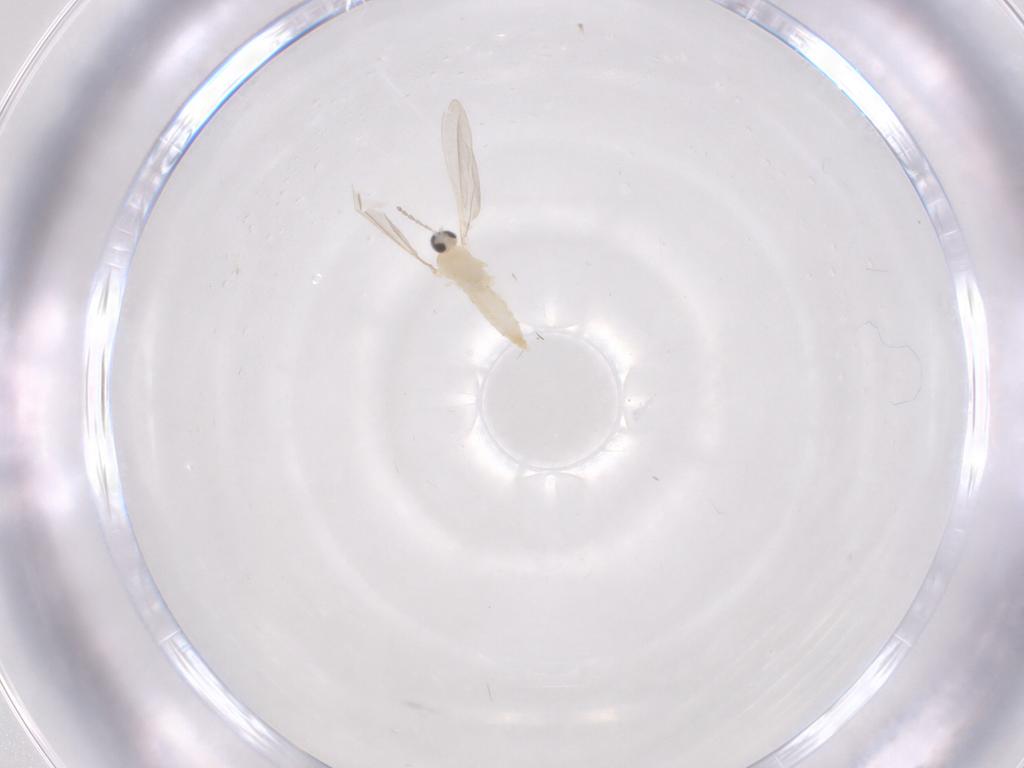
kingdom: Animalia
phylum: Arthropoda
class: Insecta
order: Diptera
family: Cecidomyiidae
